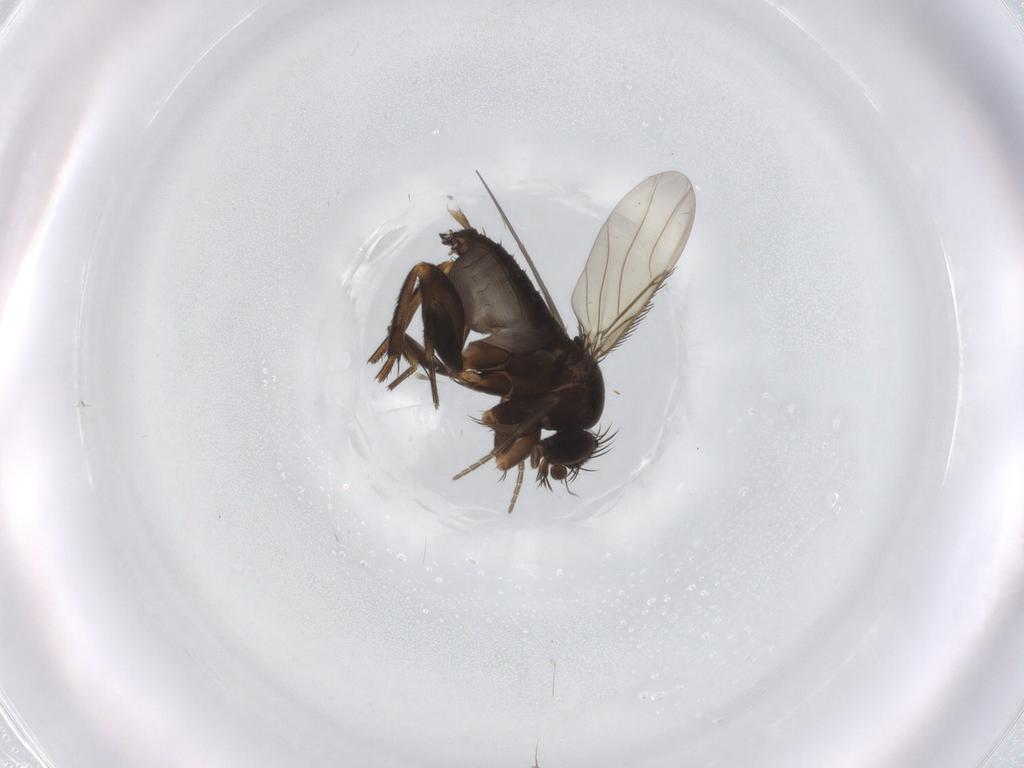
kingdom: Animalia
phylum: Arthropoda
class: Insecta
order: Diptera
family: Phoridae
